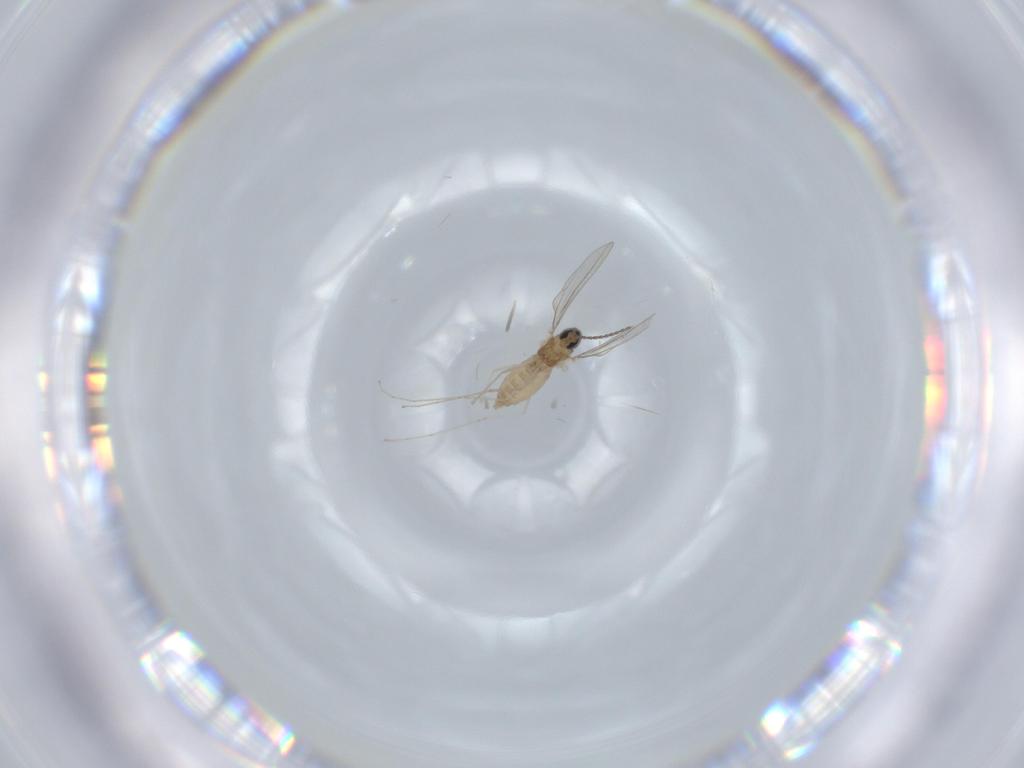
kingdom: Animalia
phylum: Arthropoda
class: Insecta
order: Diptera
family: Cecidomyiidae
